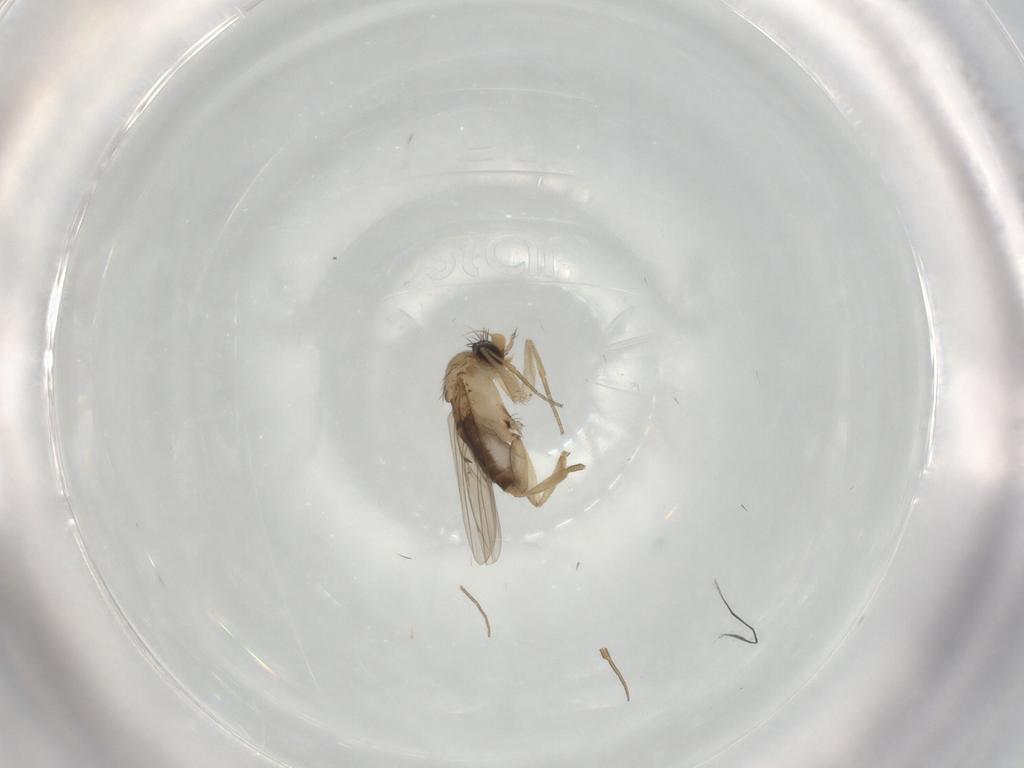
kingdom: Animalia
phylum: Arthropoda
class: Insecta
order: Diptera
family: Phoridae
